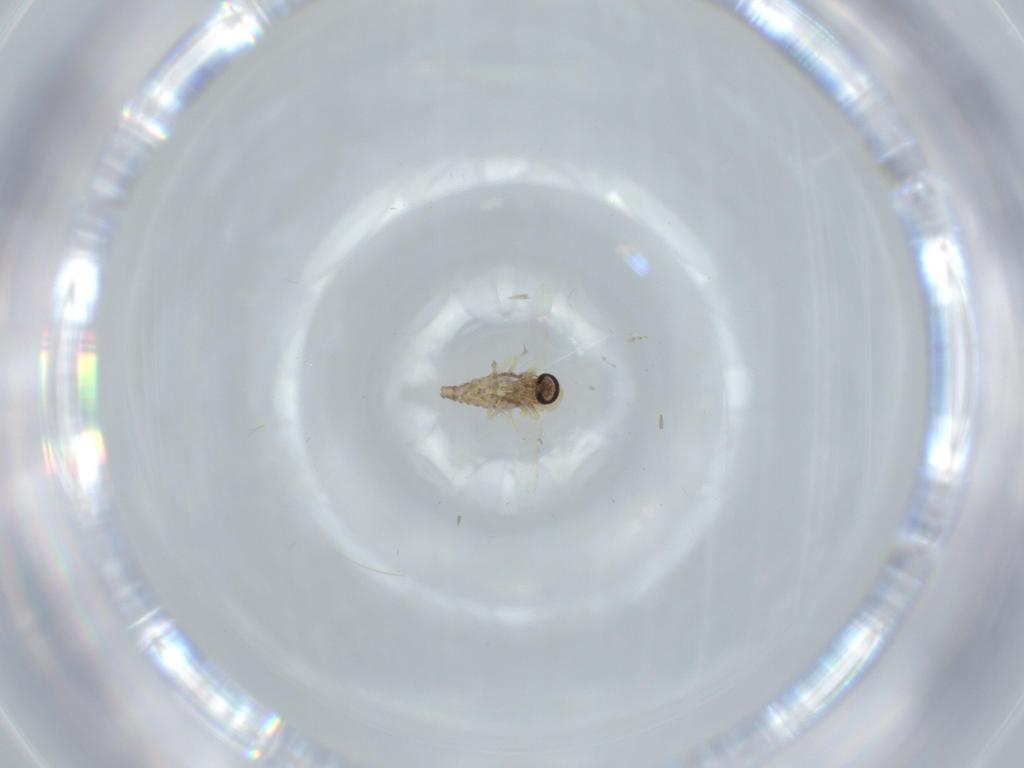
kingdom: Animalia
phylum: Arthropoda
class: Insecta
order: Diptera
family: Ceratopogonidae
